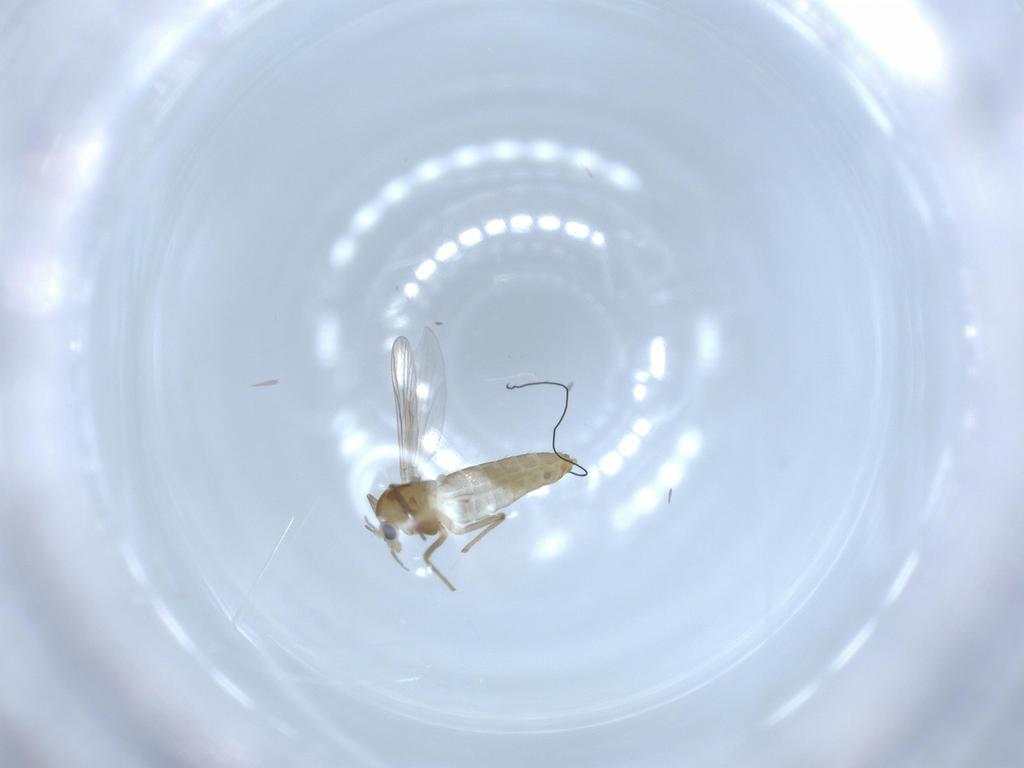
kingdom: Animalia
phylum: Arthropoda
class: Insecta
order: Diptera
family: Chironomidae
